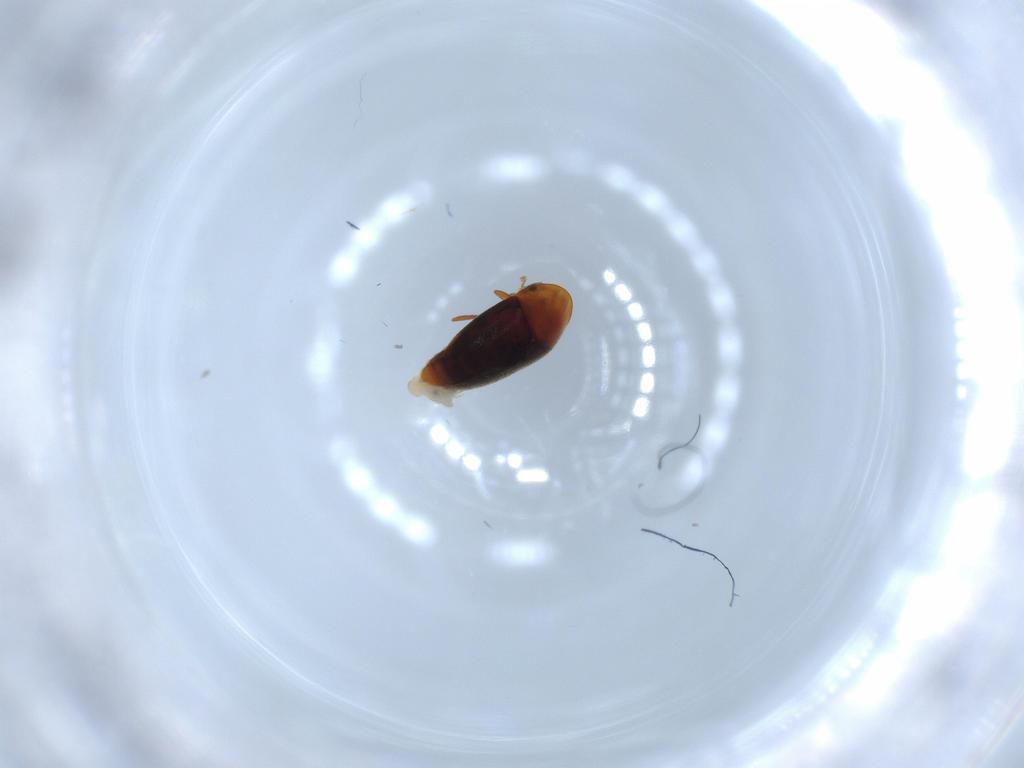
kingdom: Animalia
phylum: Arthropoda
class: Insecta
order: Coleoptera
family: Corylophidae
